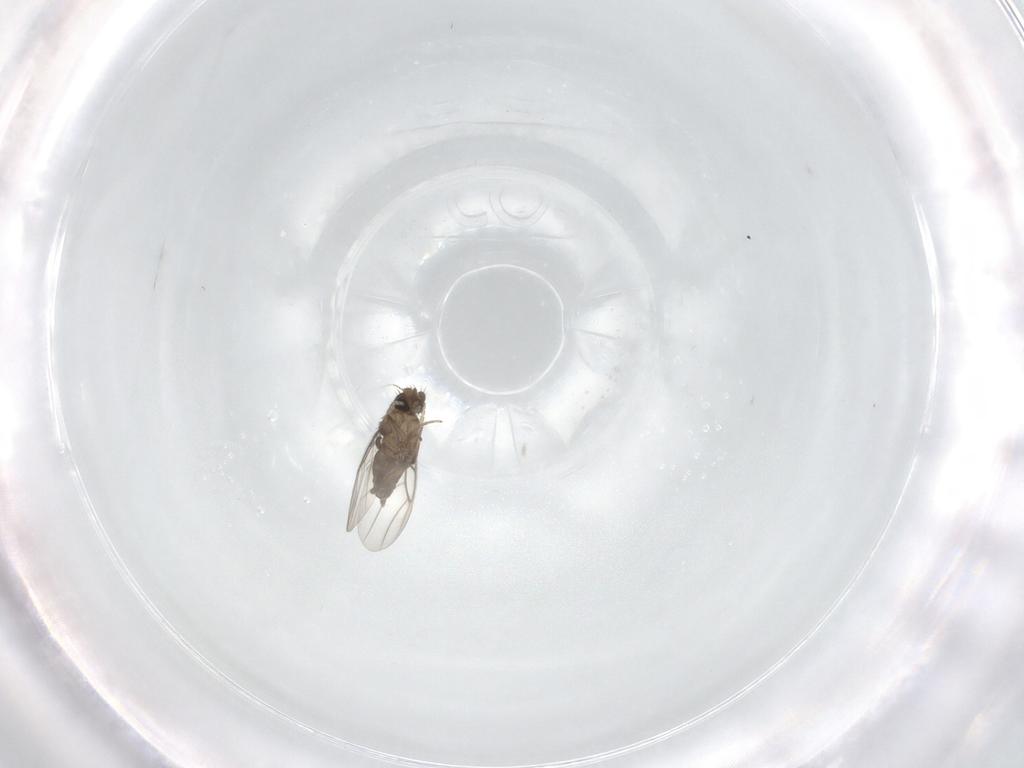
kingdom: Animalia
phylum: Arthropoda
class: Insecta
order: Diptera
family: Phoridae
